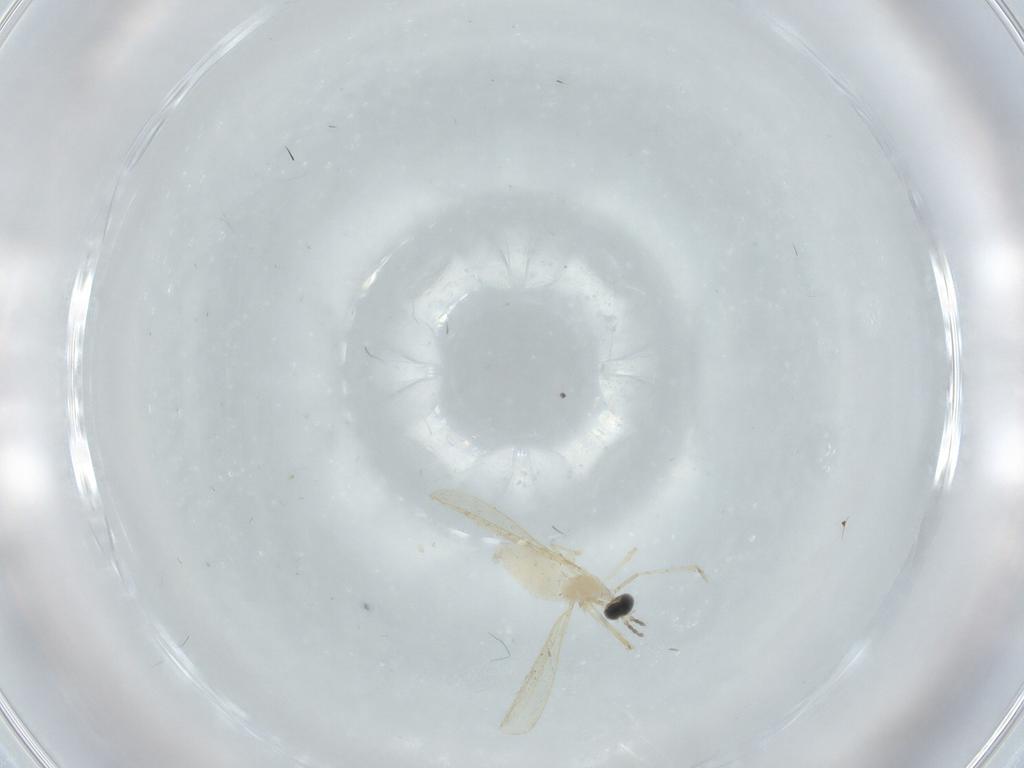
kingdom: Animalia
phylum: Arthropoda
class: Insecta
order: Diptera
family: Cecidomyiidae
